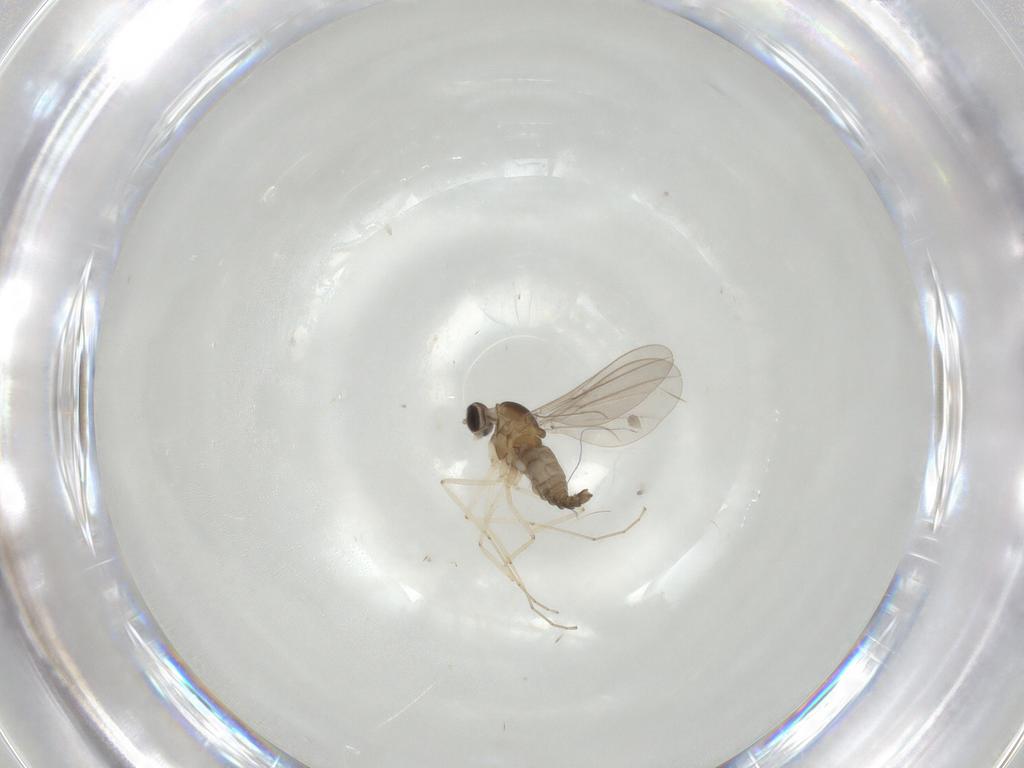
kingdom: Animalia
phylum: Arthropoda
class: Insecta
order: Diptera
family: Cecidomyiidae
